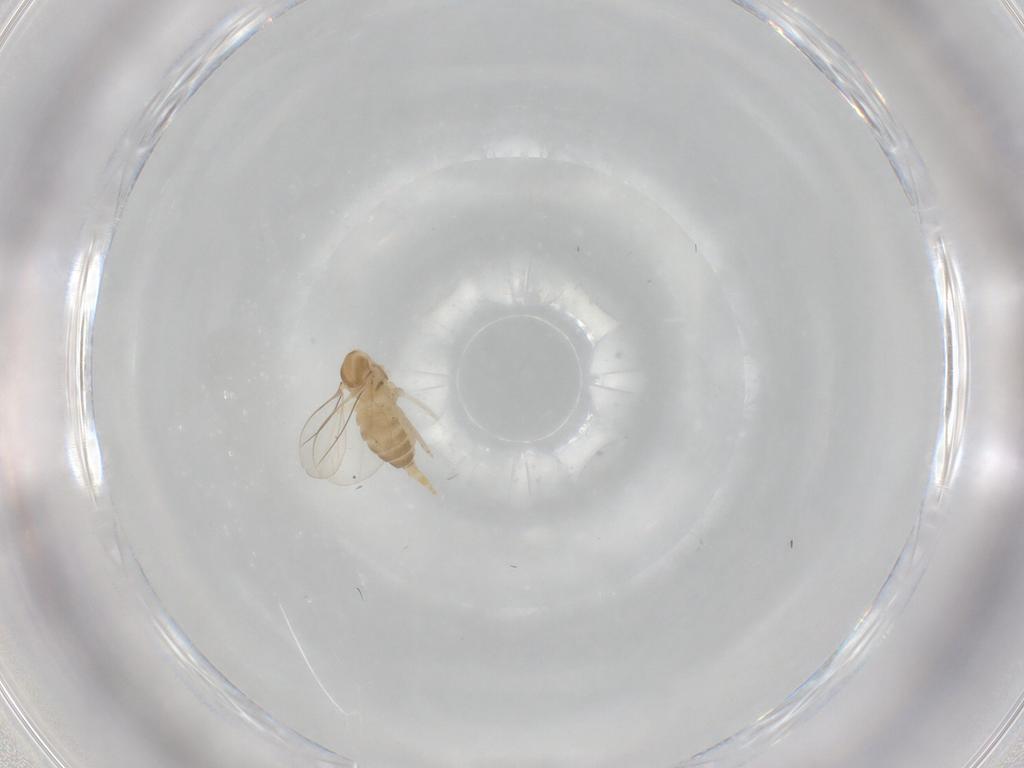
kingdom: Animalia
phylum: Arthropoda
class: Insecta
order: Diptera
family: Cecidomyiidae
